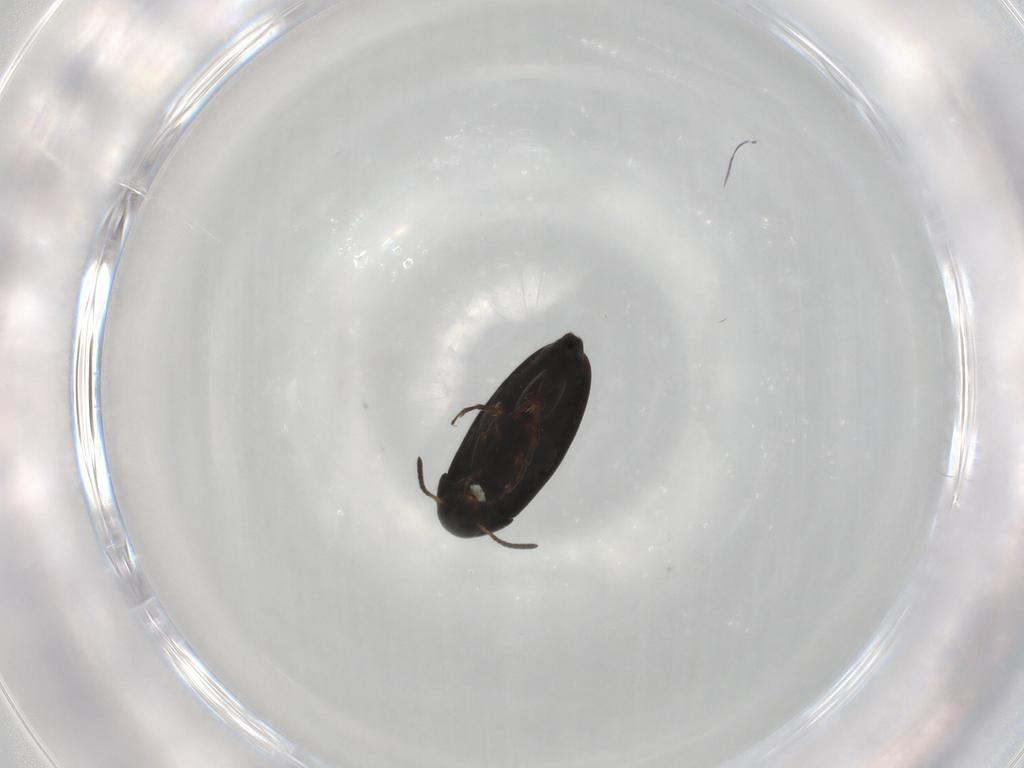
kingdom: Animalia
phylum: Arthropoda
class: Insecta
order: Coleoptera
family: Scraptiidae
